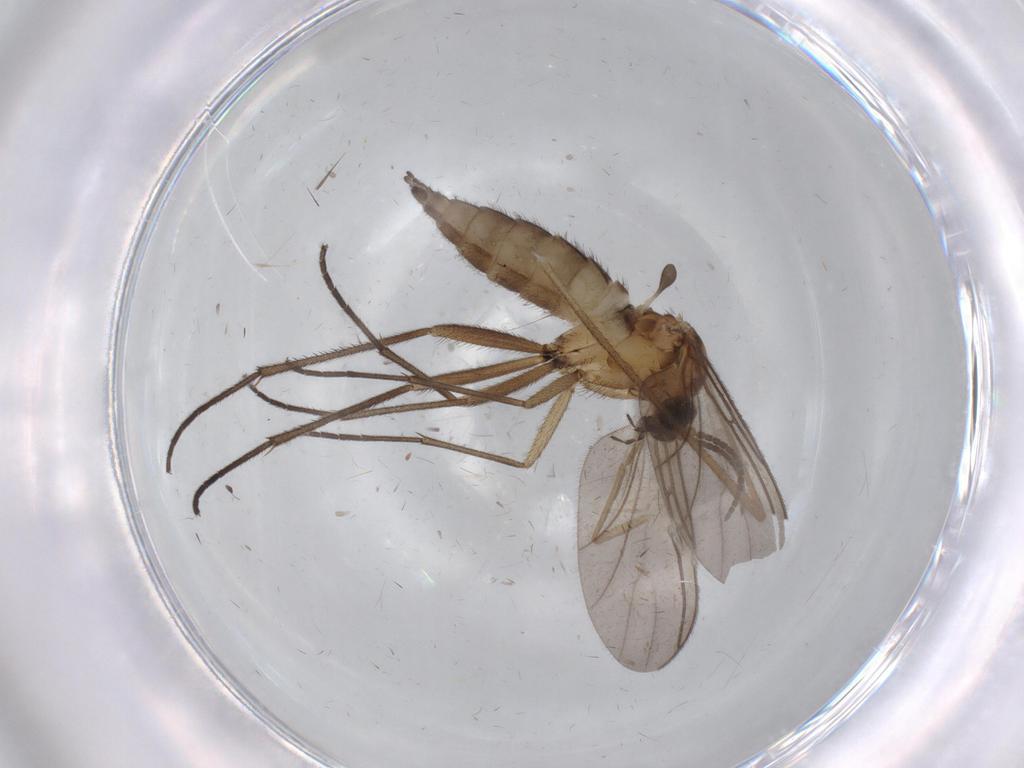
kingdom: Animalia
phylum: Arthropoda
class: Insecta
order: Diptera
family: Sciaridae
